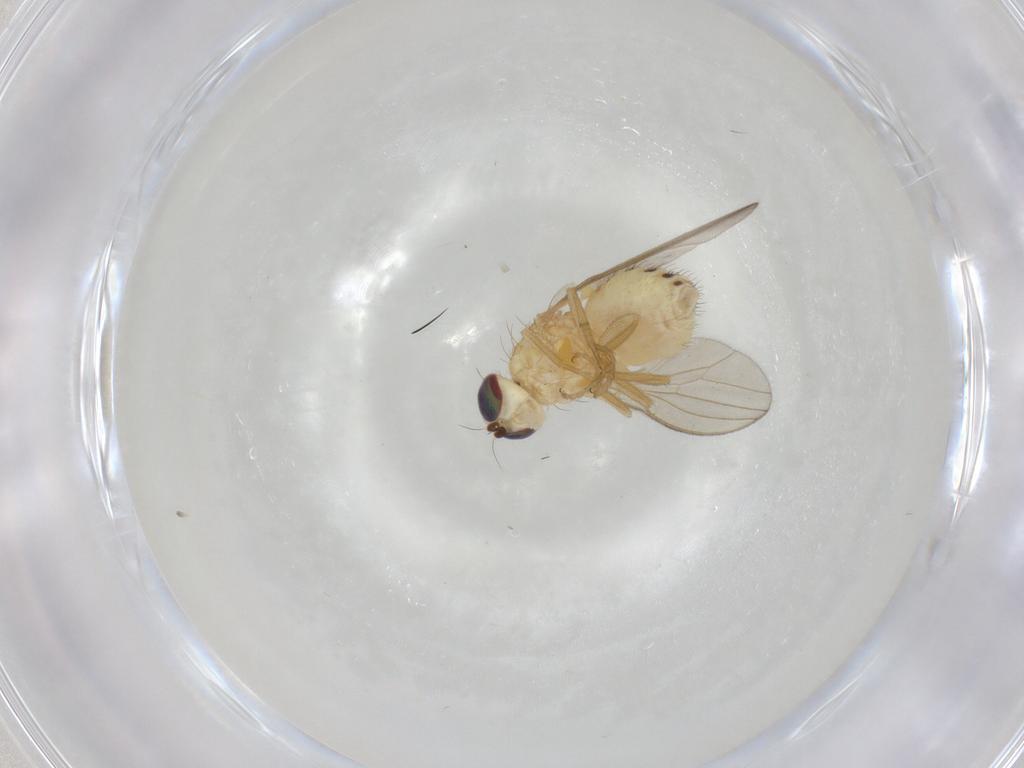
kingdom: Animalia
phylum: Arthropoda
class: Insecta
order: Diptera
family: Chyromyidae
